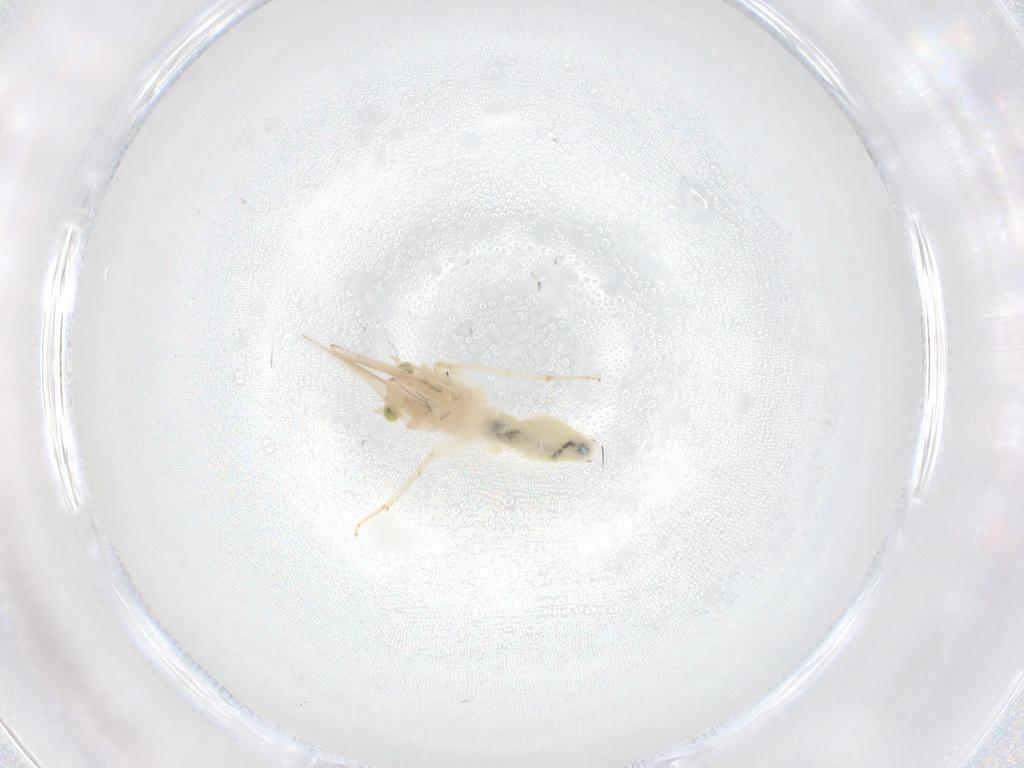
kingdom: Animalia
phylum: Arthropoda
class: Insecta
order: Psocodea
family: Lepidopsocidae
